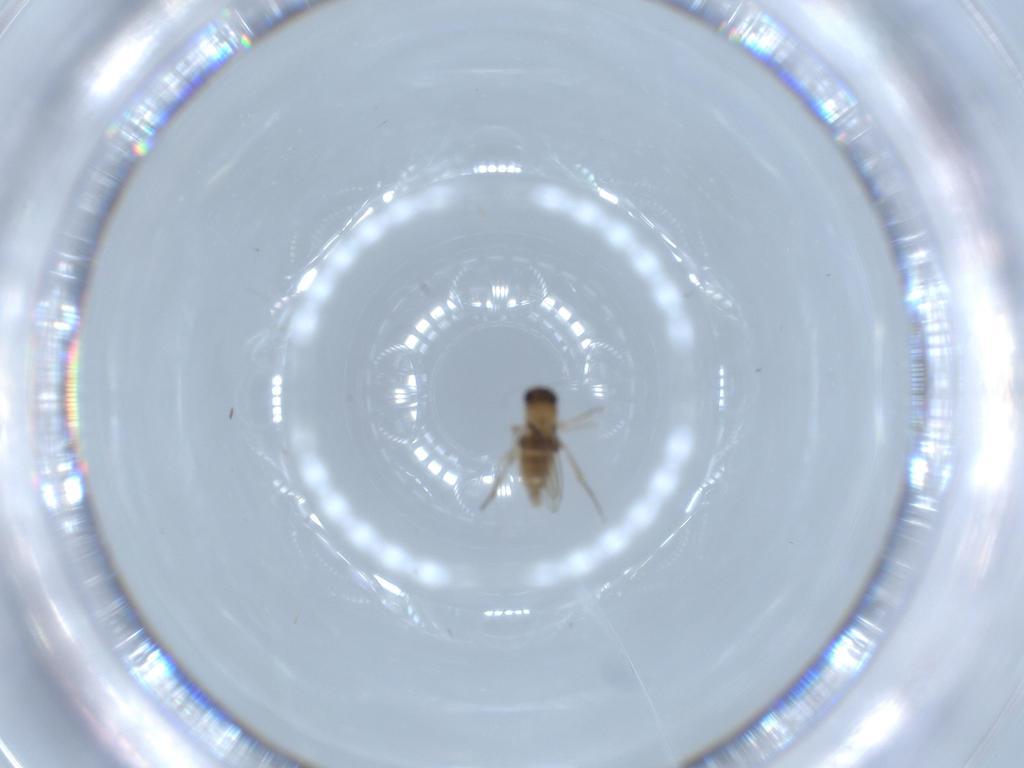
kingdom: Animalia
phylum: Arthropoda
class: Insecta
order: Diptera
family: Phoridae
